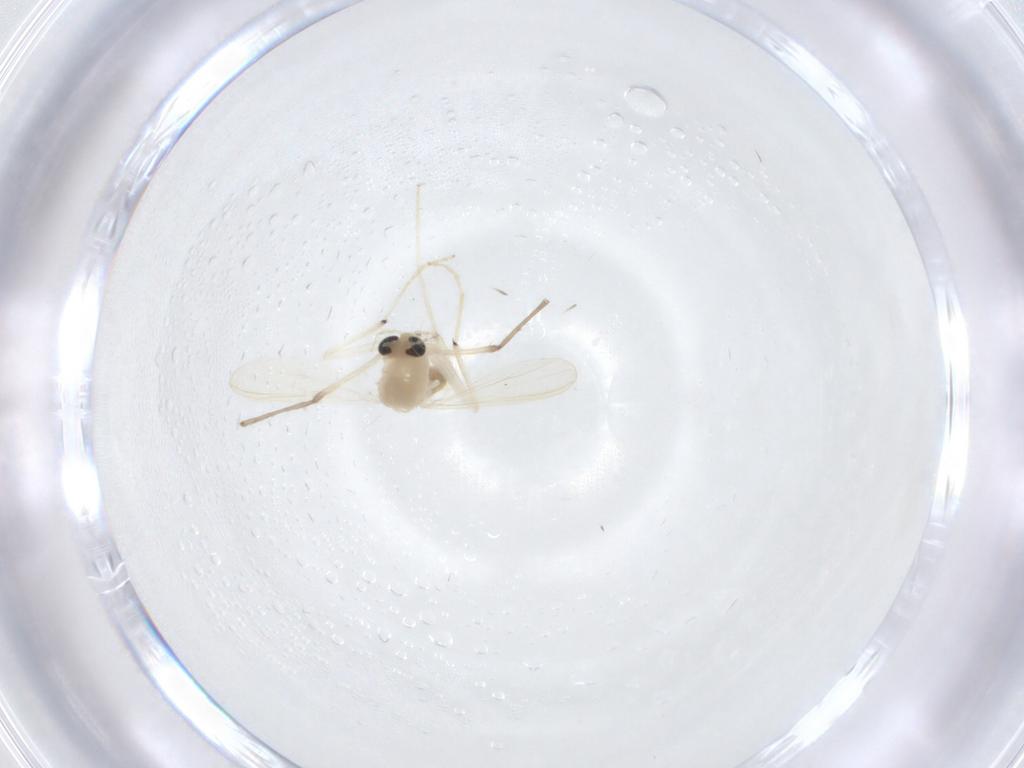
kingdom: Animalia
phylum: Arthropoda
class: Insecta
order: Diptera
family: Chironomidae
